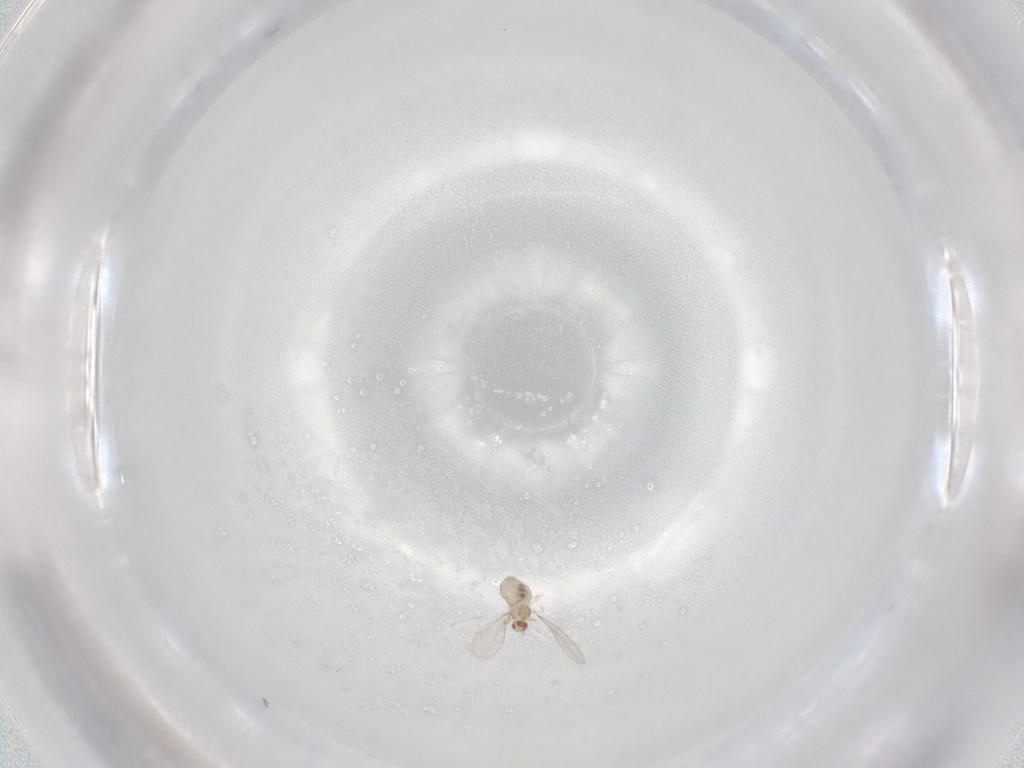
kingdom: Animalia
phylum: Arthropoda
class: Insecta
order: Diptera
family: Cecidomyiidae
